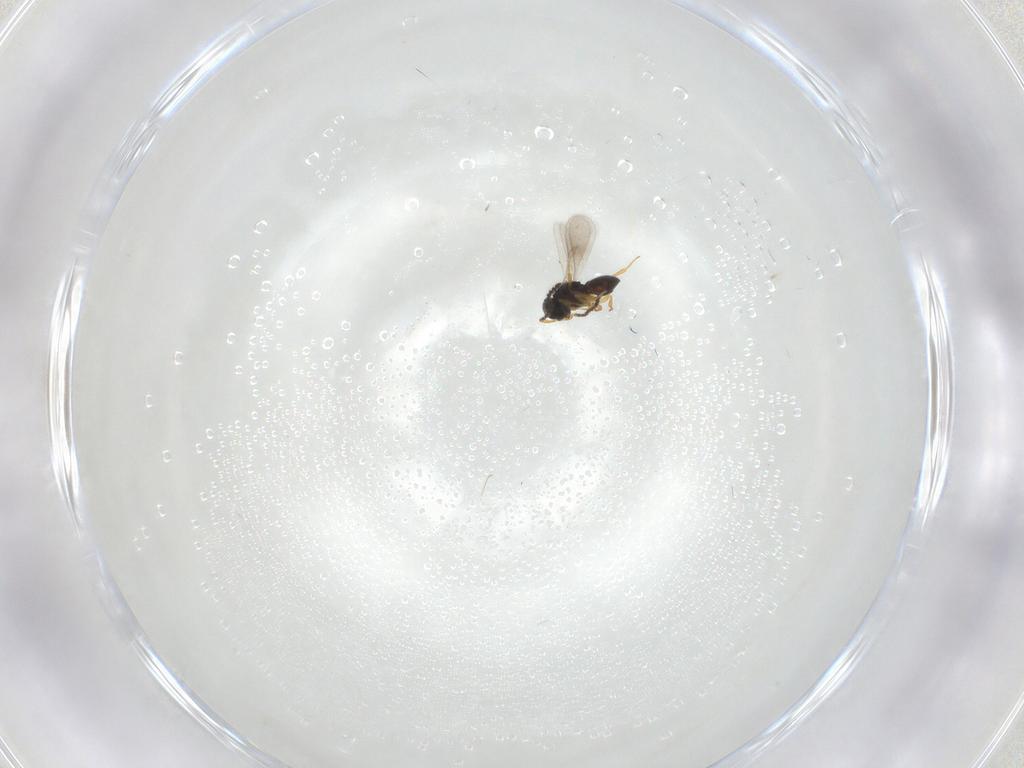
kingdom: Animalia
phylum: Arthropoda
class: Insecta
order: Hymenoptera
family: Scelionidae
